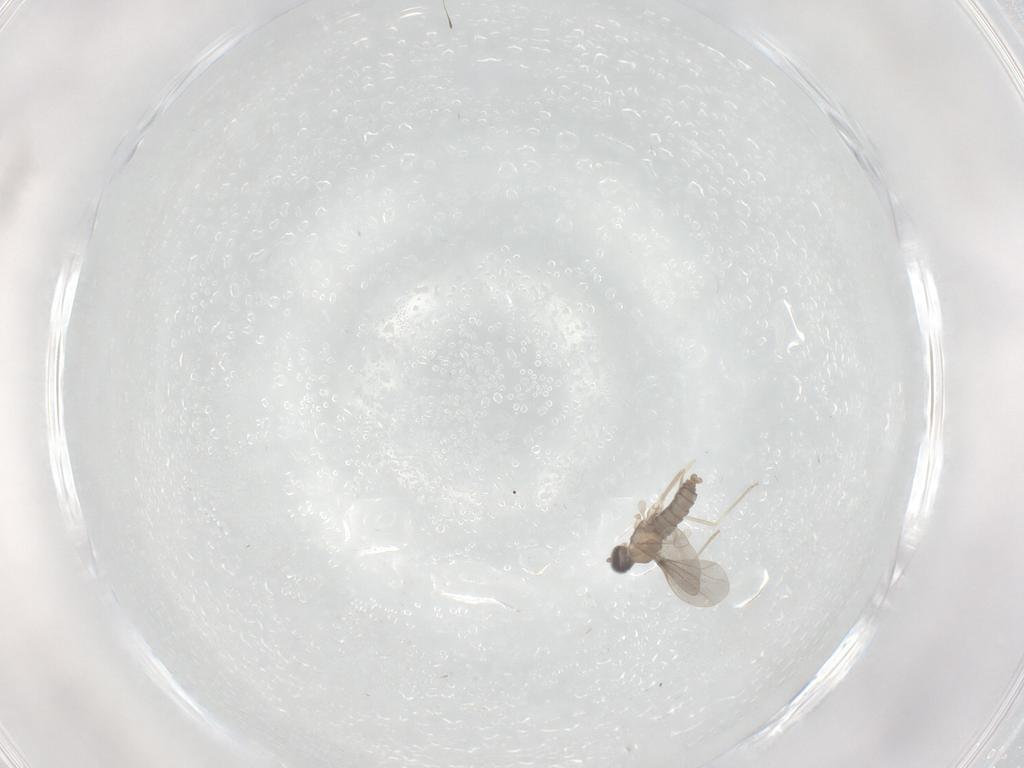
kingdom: Animalia
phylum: Arthropoda
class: Insecta
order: Diptera
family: Cecidomyiidae
